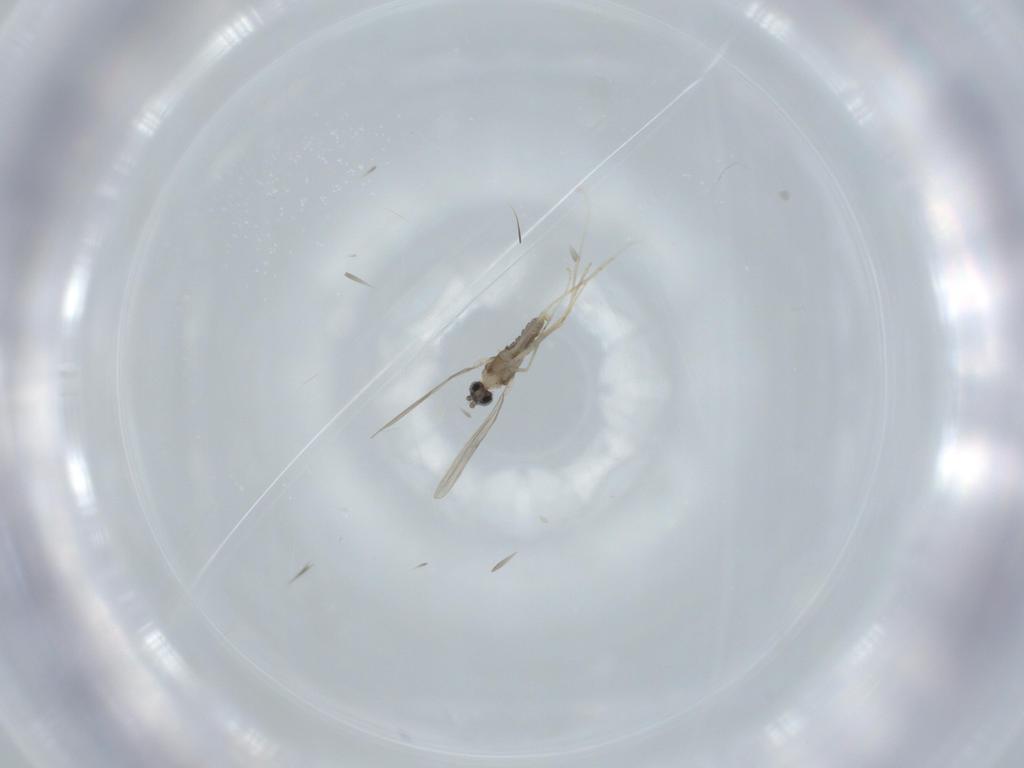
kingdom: Animalia
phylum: Arthropoda
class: Insecta
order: Diptera
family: Cecidomyiidae
